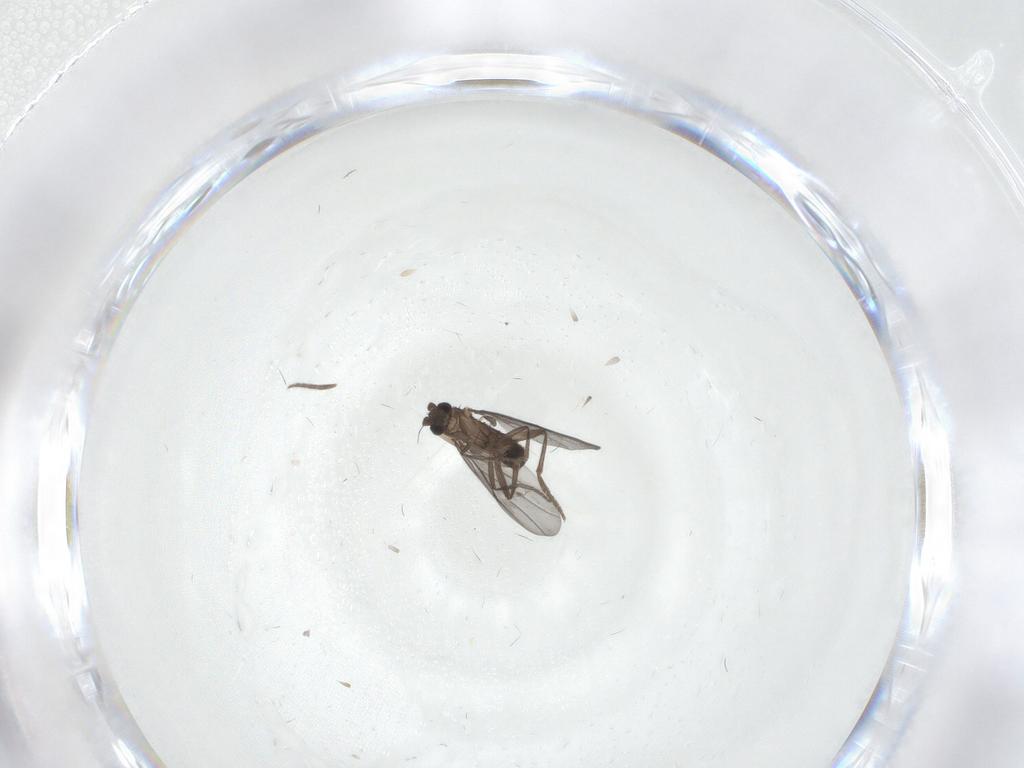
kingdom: Animalia
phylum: Arthropoda
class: Insecta
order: Diptera
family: Phoridae
